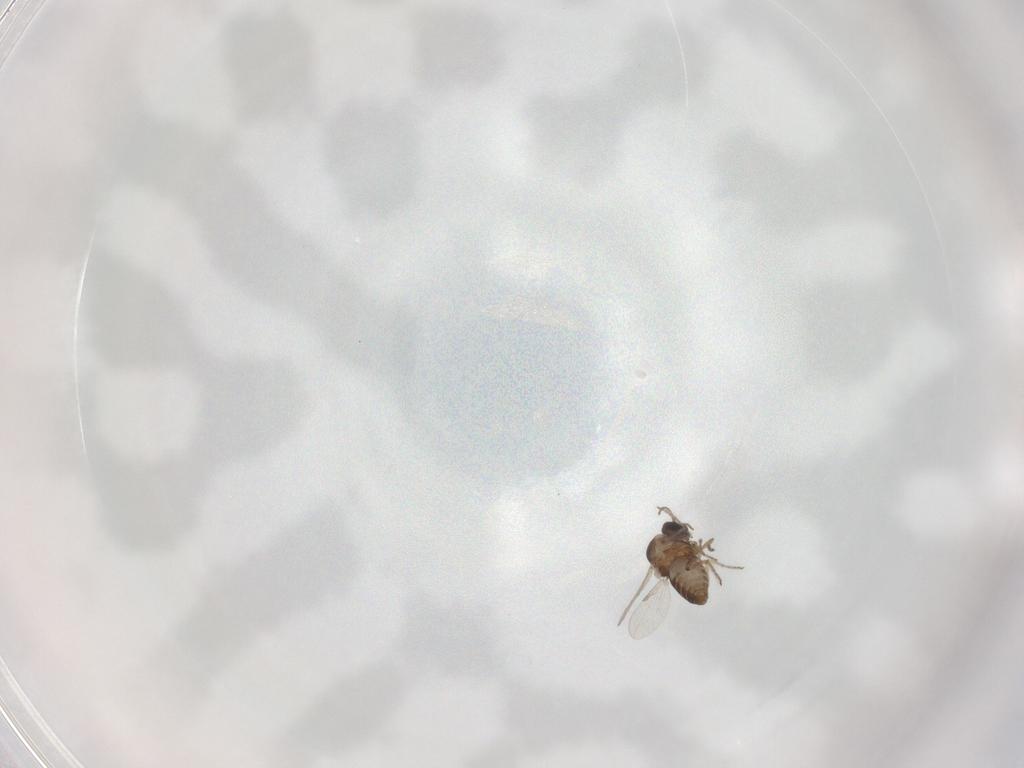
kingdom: Animalia
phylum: Arthropoda
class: Insecta
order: Diptera
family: Ceratopogonidae
